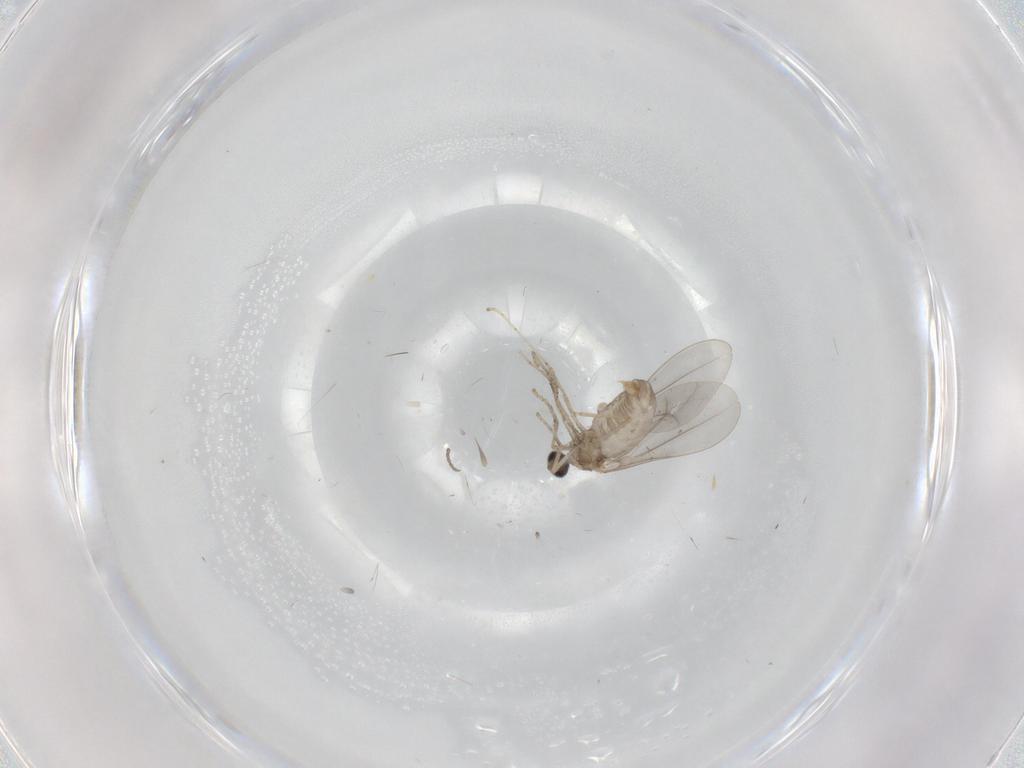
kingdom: Animalia
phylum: Arthropoda
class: Insecta
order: Diptera
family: Cecidomyiidae
